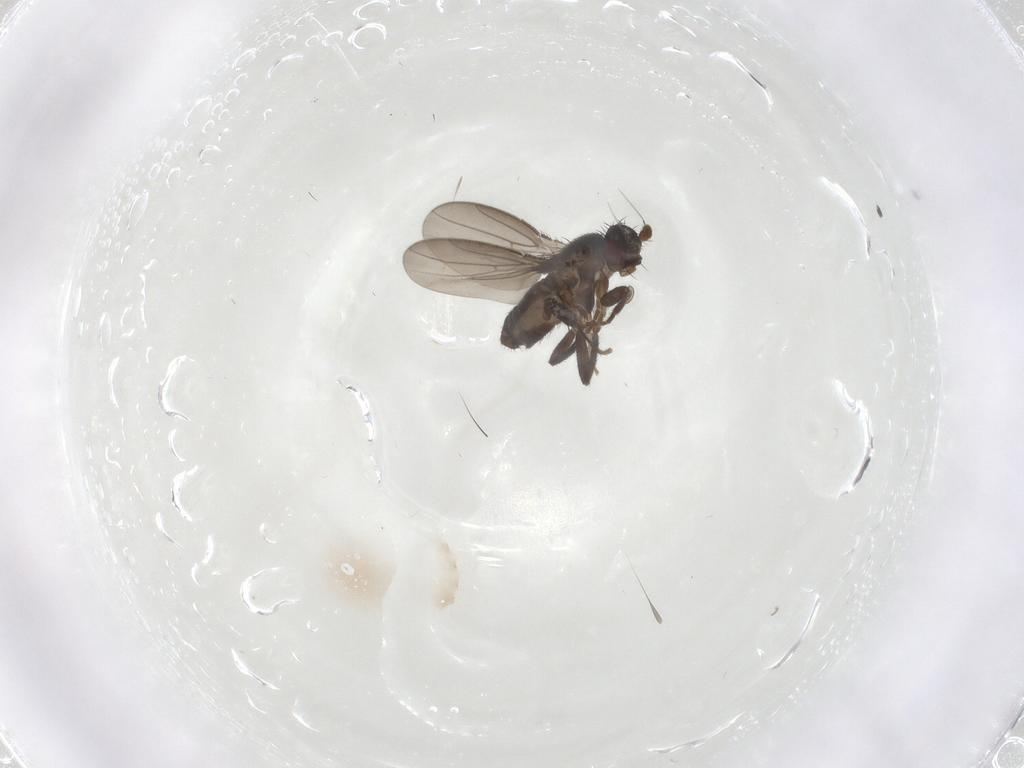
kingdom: Animalia
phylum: Arthropoda
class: Insecta
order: Diptera
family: Sphaeroceridae
